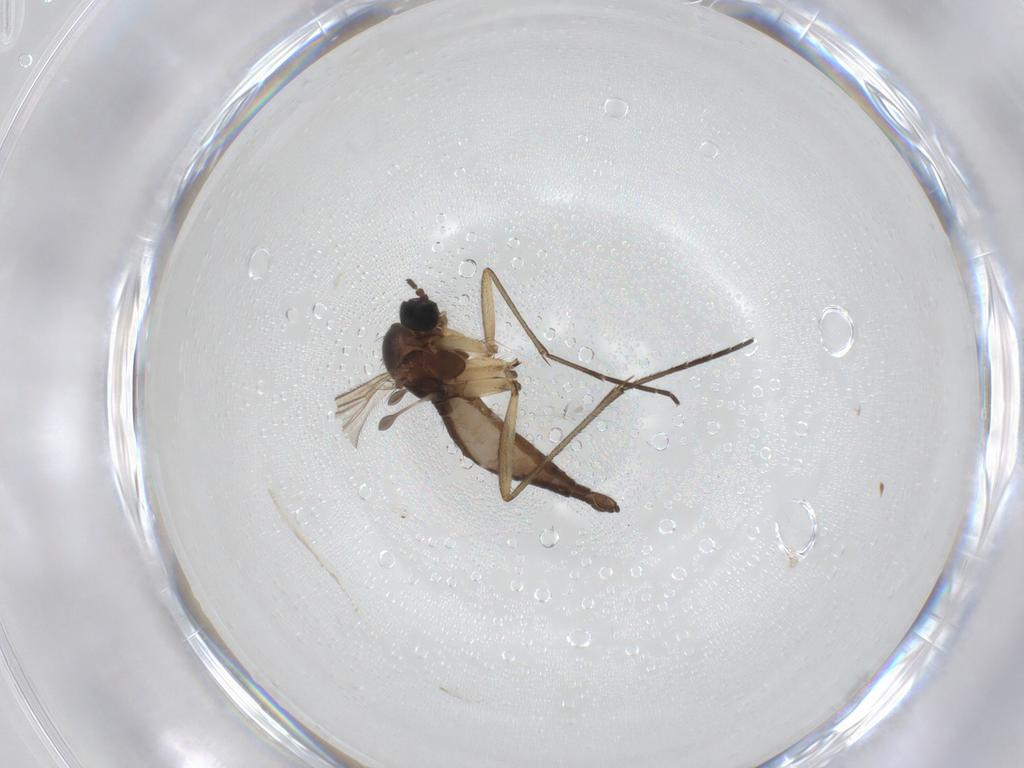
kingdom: Animalia
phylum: Arthropoda
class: Insecta
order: Diptera
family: Sciaridae
